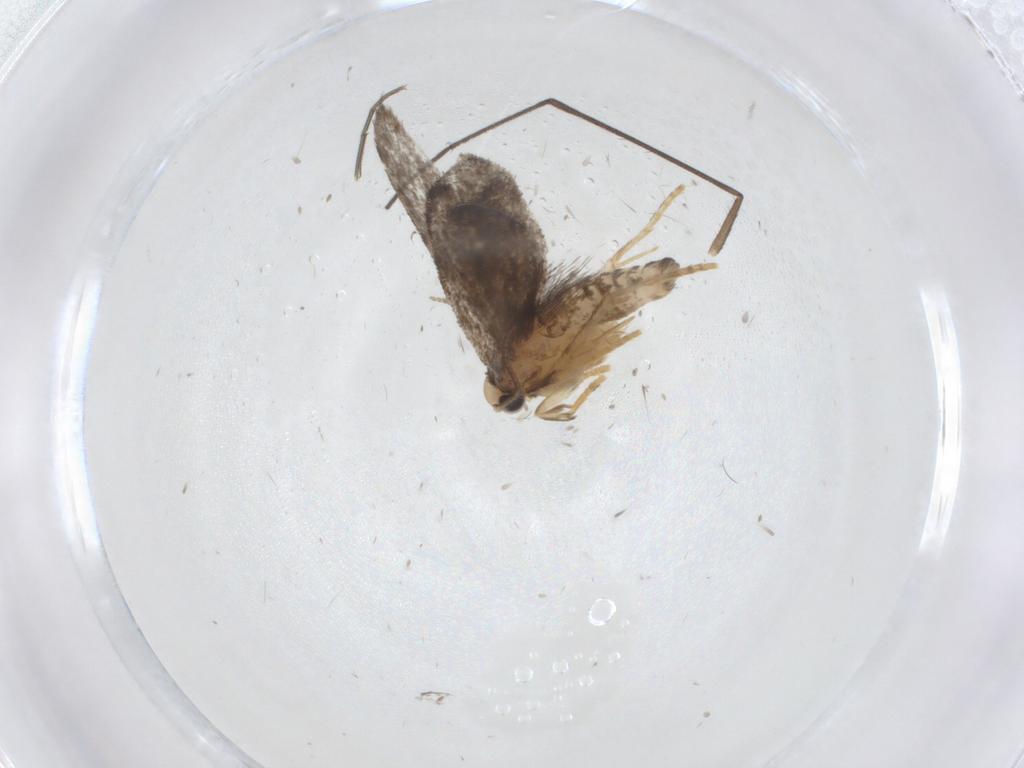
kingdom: Animalia
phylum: Arthropoda
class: Insecta
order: Lepidoptera
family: Psychidae
